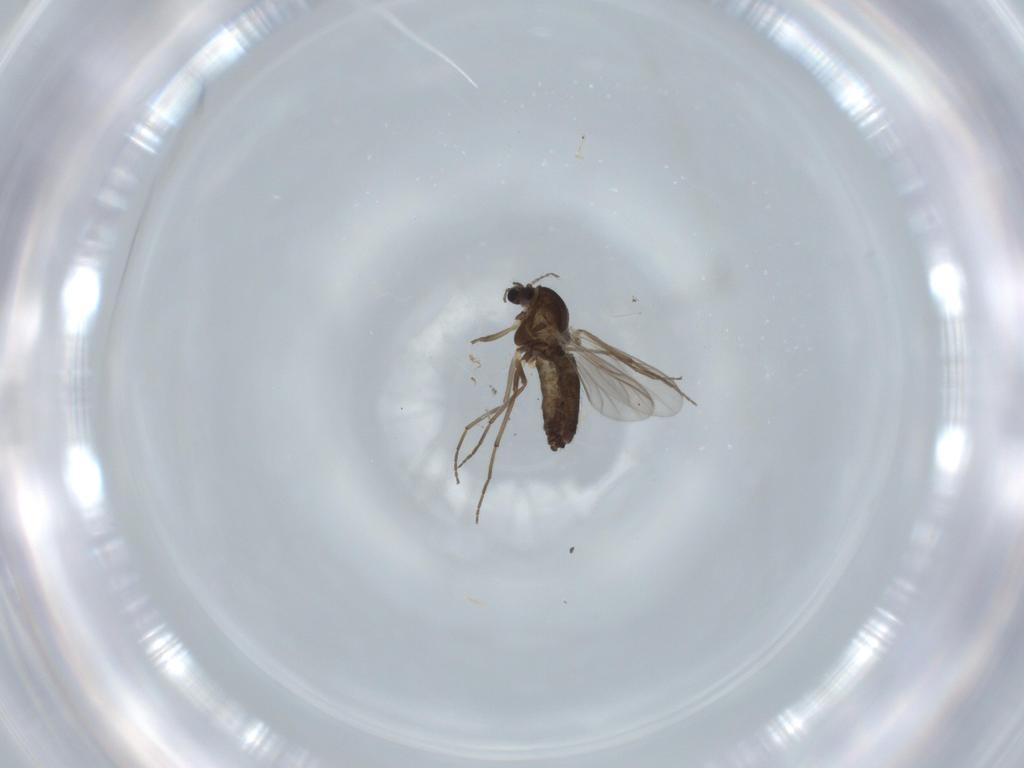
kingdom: Animalia
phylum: Arthropoda
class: Insecta
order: Diptera
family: Chironomidae
